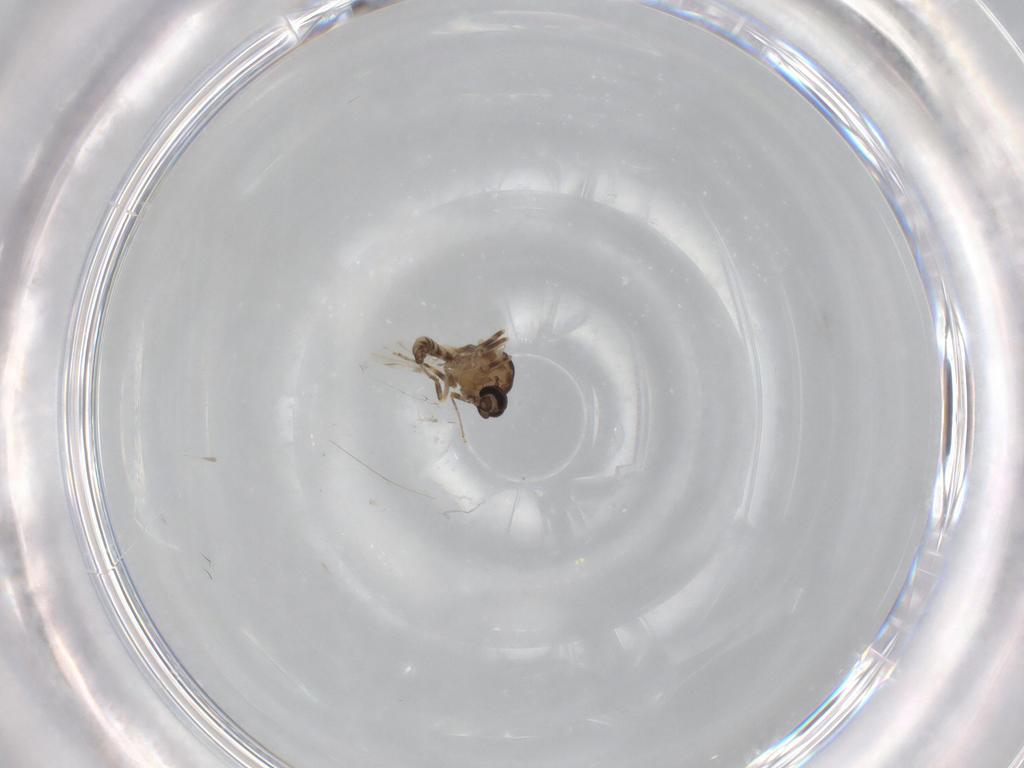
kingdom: Animalia
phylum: Arthropoda
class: Insecta
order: Diptera
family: Ceratopogonidae
